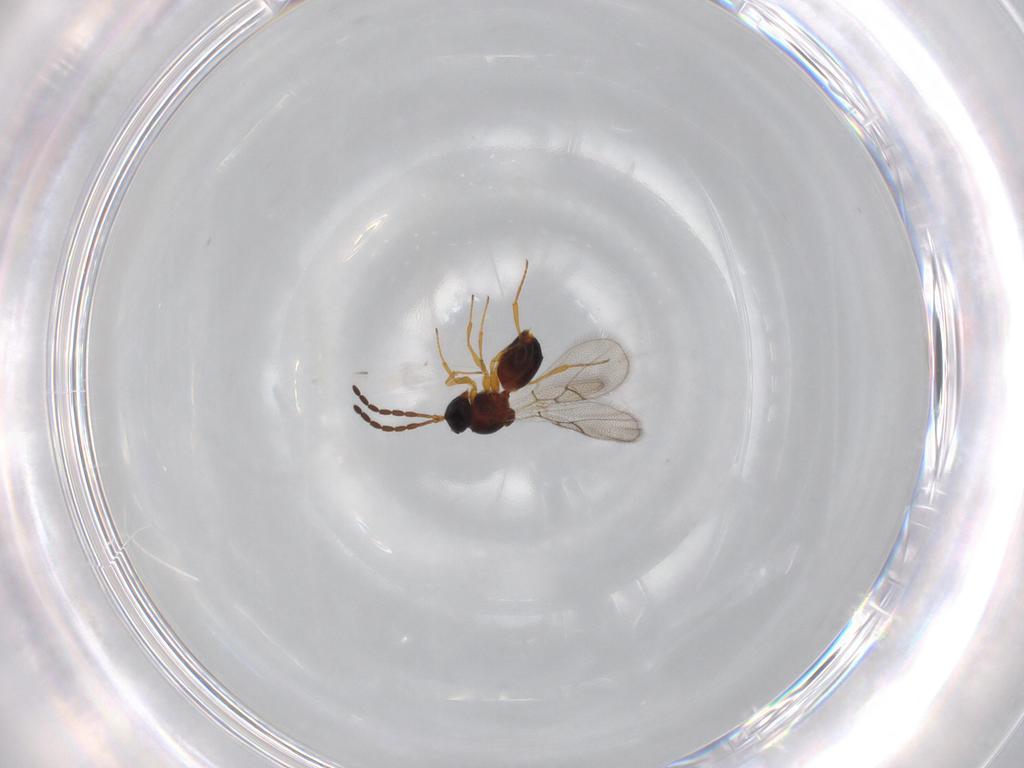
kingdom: Animalia
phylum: Arthropoda
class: Insecta
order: Hymenoptera
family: Figitidae
